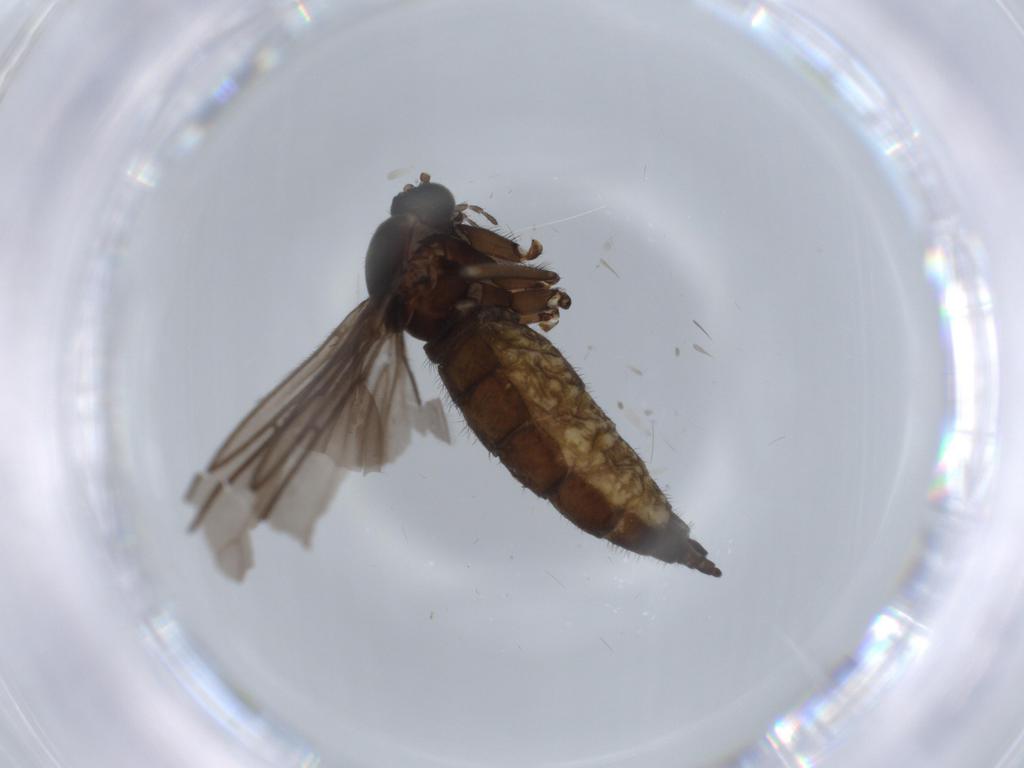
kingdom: Animalia
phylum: Arthropoda
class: Insecta
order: Diptera
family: Sciaridae
